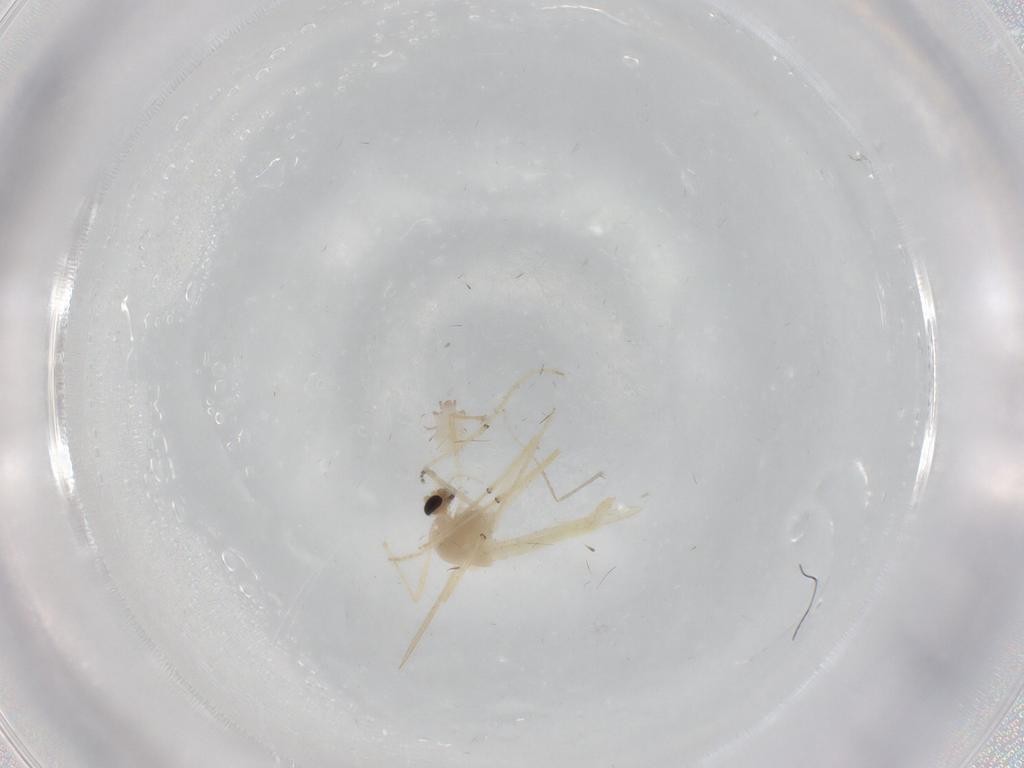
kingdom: Animalia
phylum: Arthropoda
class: Insecta
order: Diptera
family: Chironomidae
